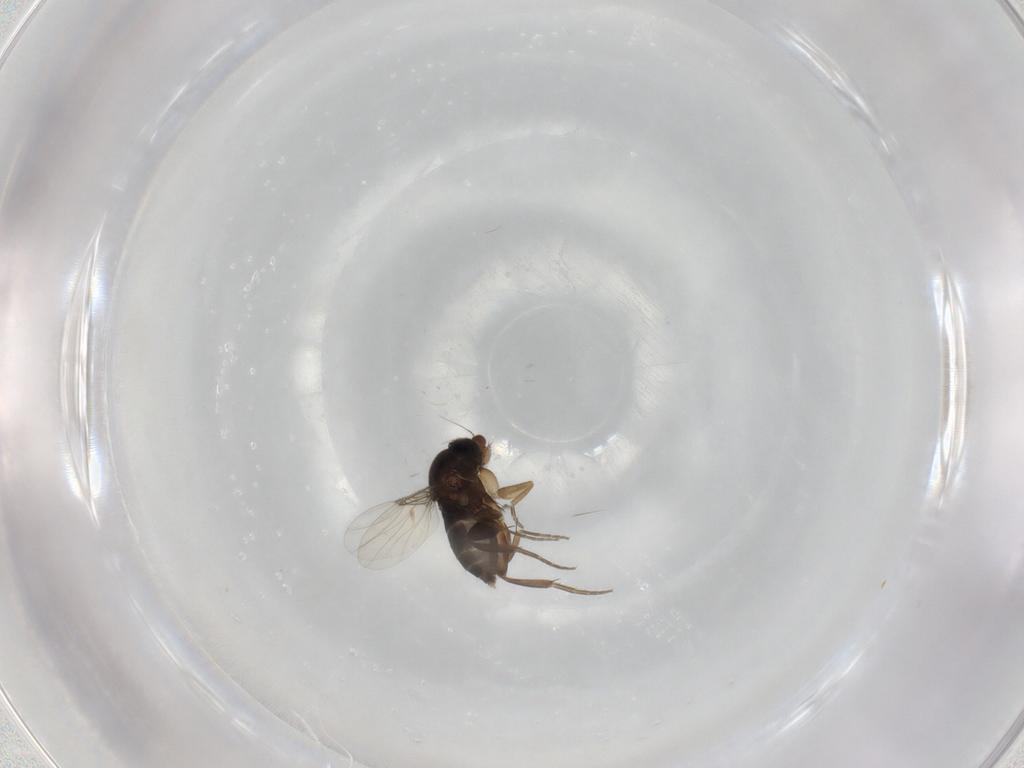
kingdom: Animalia
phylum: Arthropoda
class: Insecta
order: Diptera
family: Phoridae
